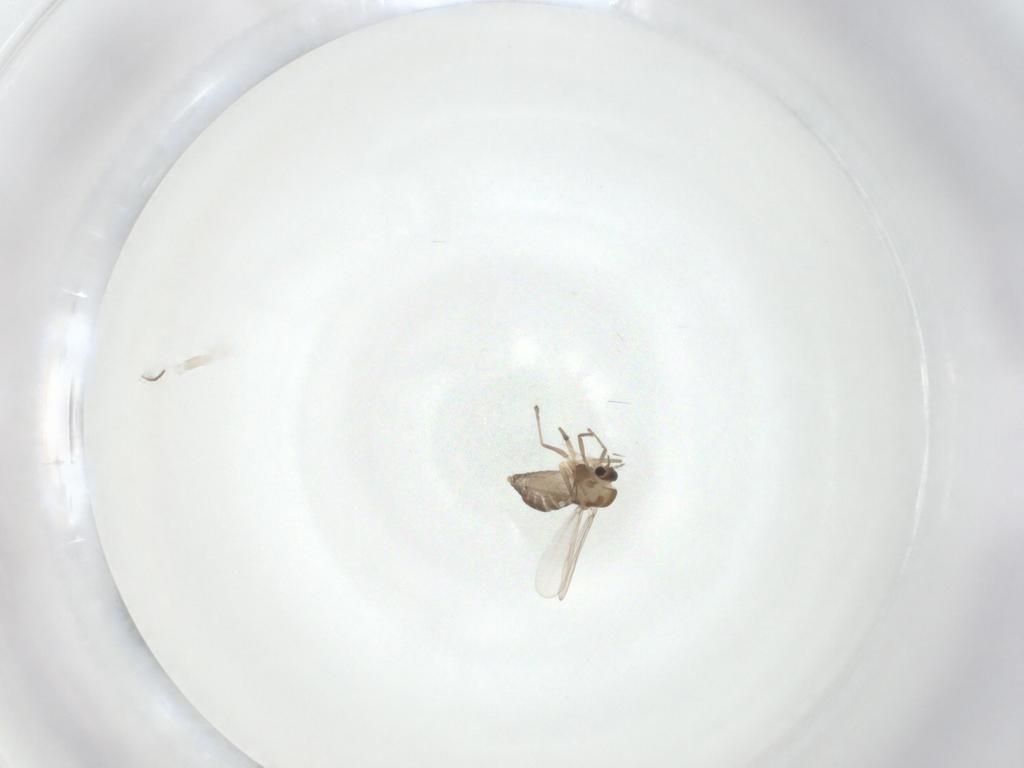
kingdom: Animalia
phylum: Arthropoda
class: Insecta
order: Diptera
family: Chironomidae
